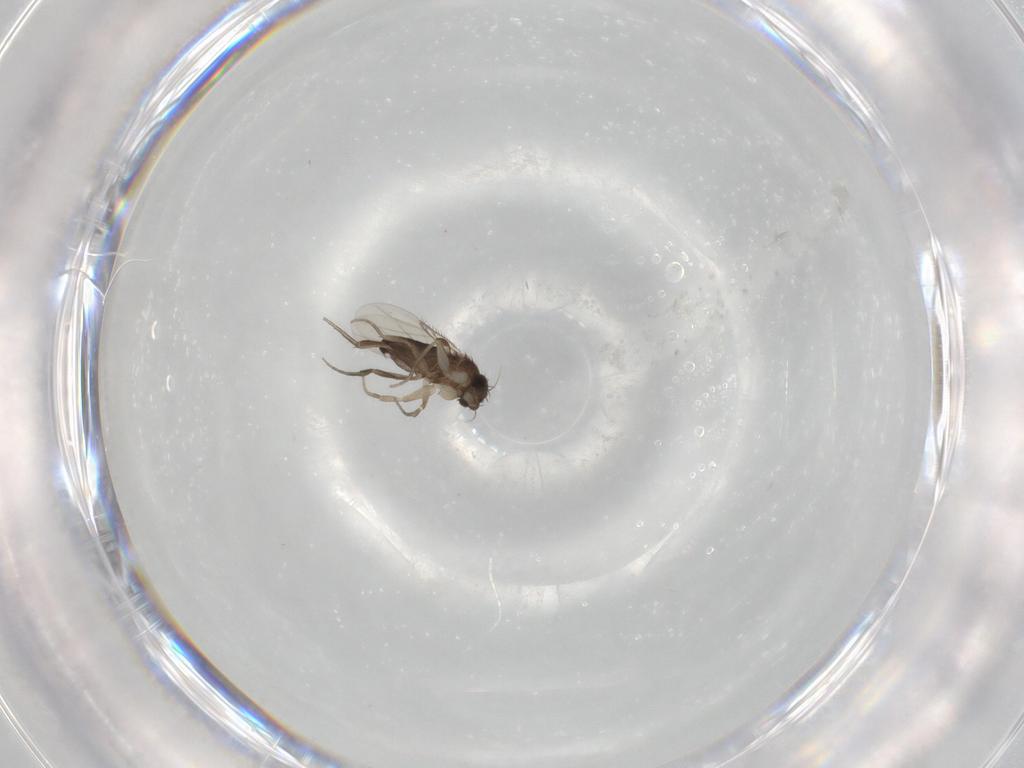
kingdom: Animalia
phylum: Arthropoda
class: Insecta
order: Diptera
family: Phoridae
